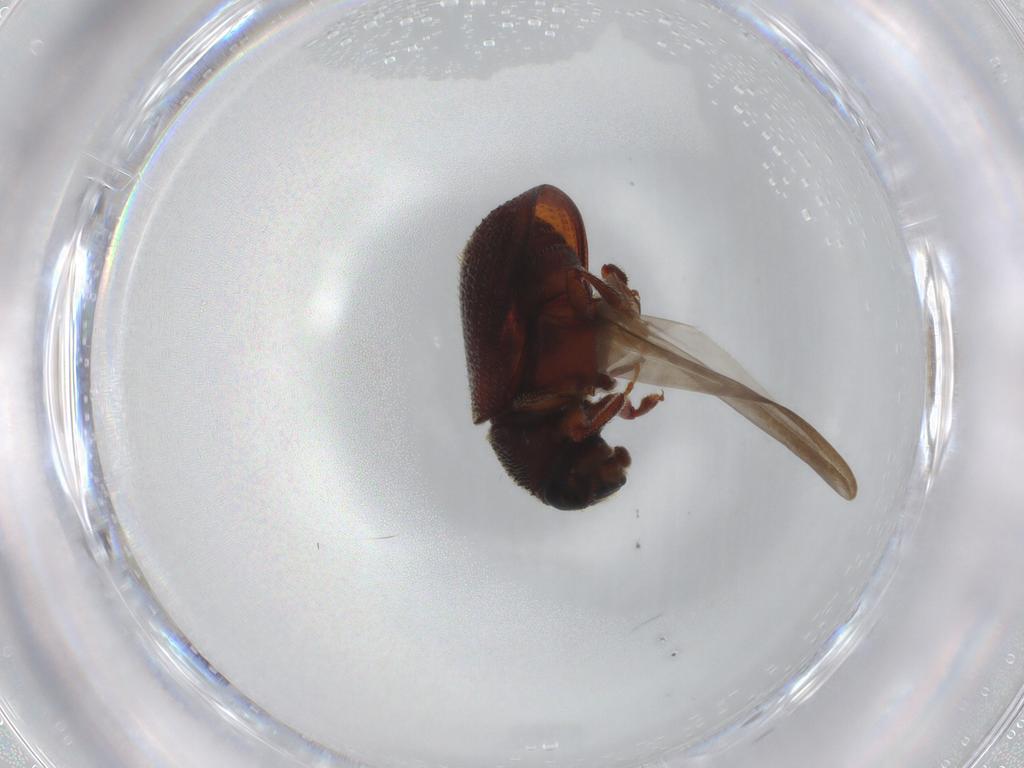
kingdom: Animalia
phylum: Arthropoda
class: Insecta
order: Coleoptera
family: Curculionidae
